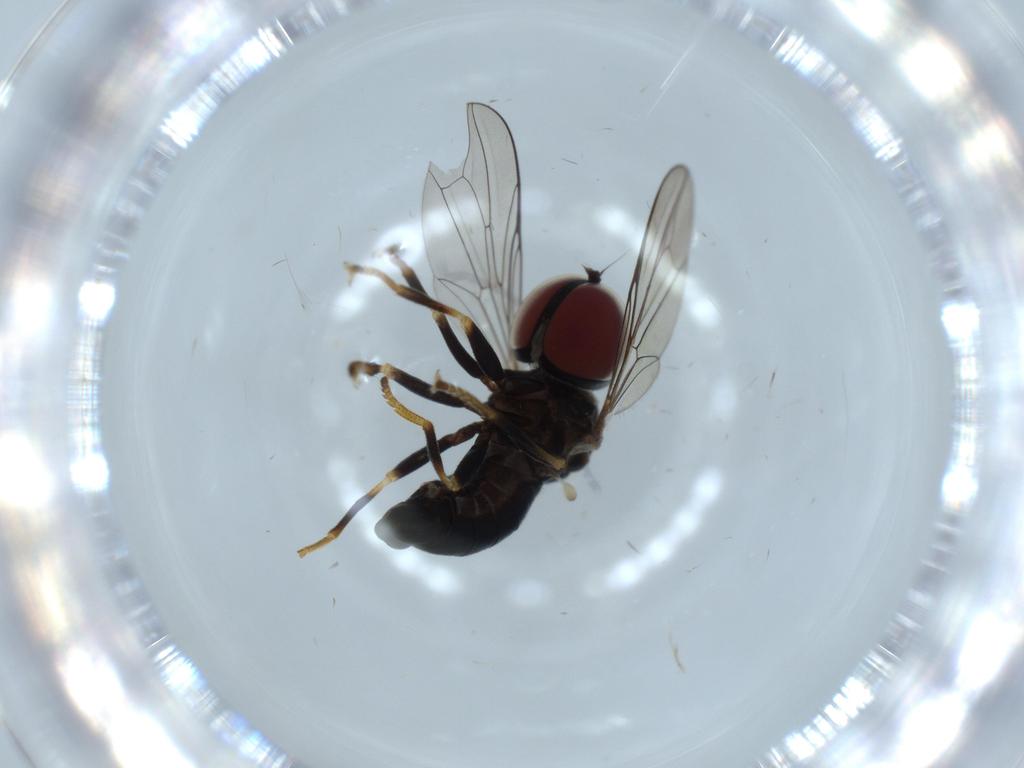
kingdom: Animalia
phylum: Arthropoda
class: Insecta
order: Diptera
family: Pipunculidae
